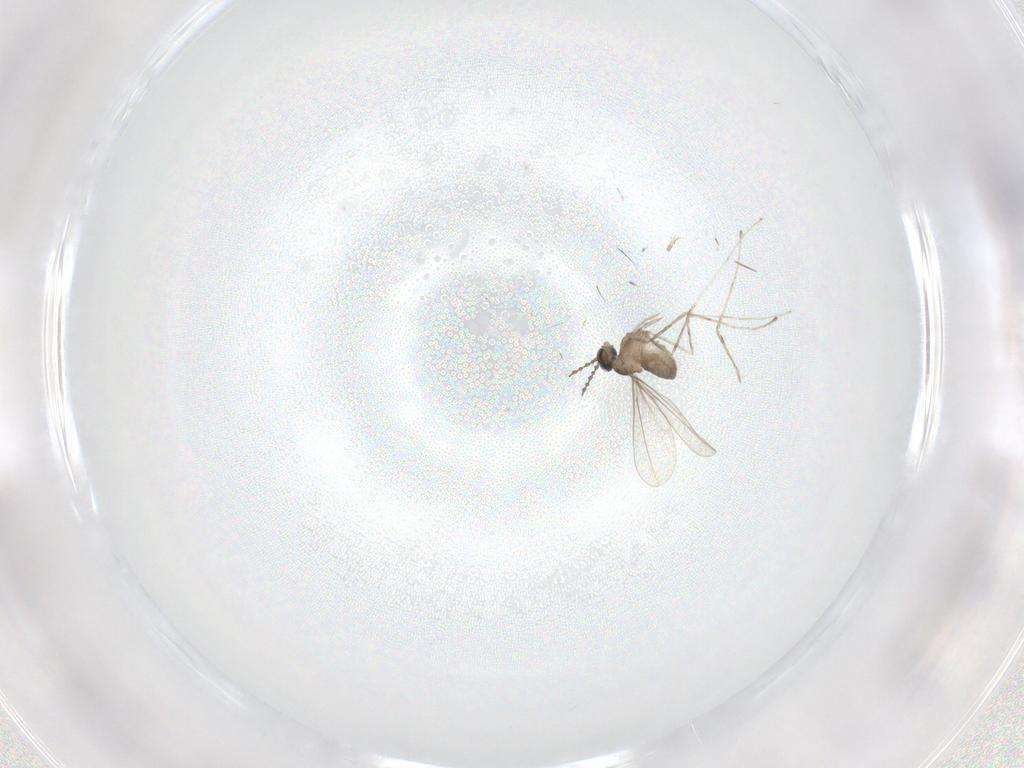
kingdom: Animalia
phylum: Arthropoda
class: Insecta
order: Diptera
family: Cecidomyiidae
